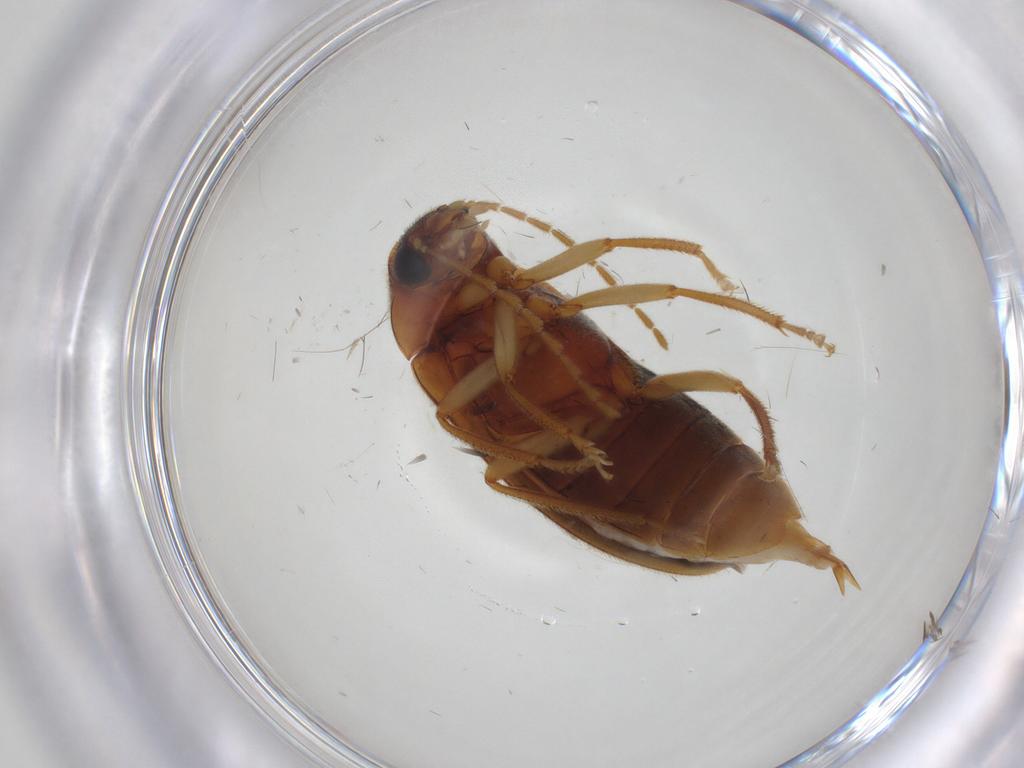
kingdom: Animalia
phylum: Arthropoda
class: Insecta
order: Coleoptera
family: Ptilodactylidae
